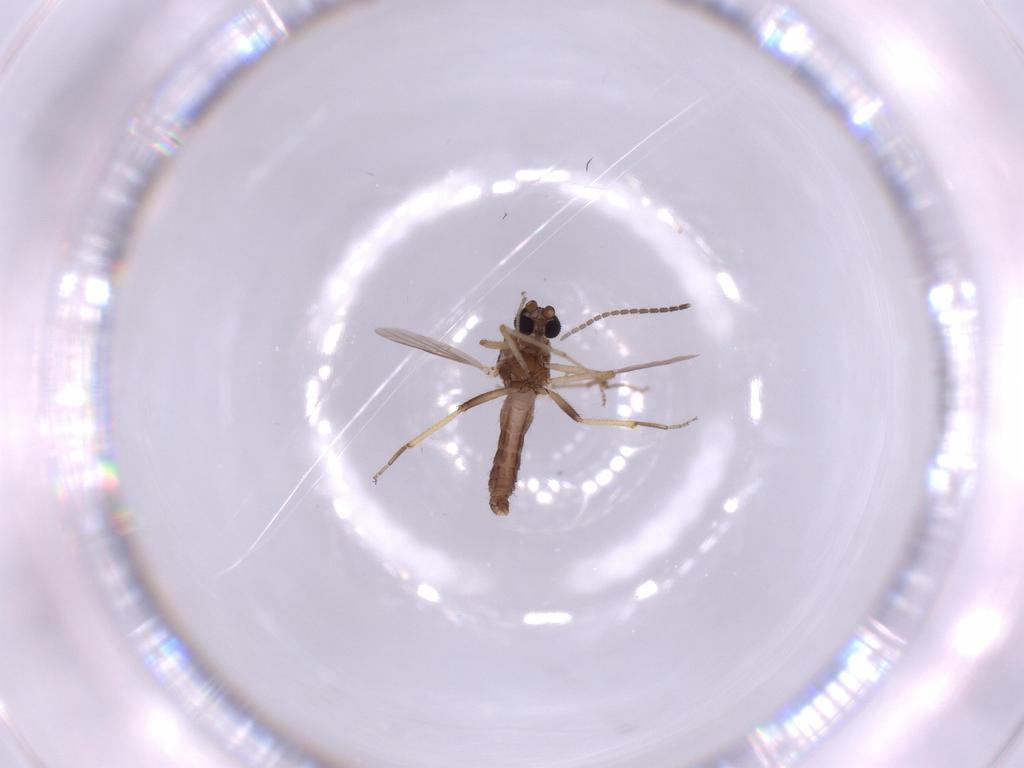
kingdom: Animalia
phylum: Arthropoda
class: Insecta
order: Diptera
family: Ceratopogonidae
